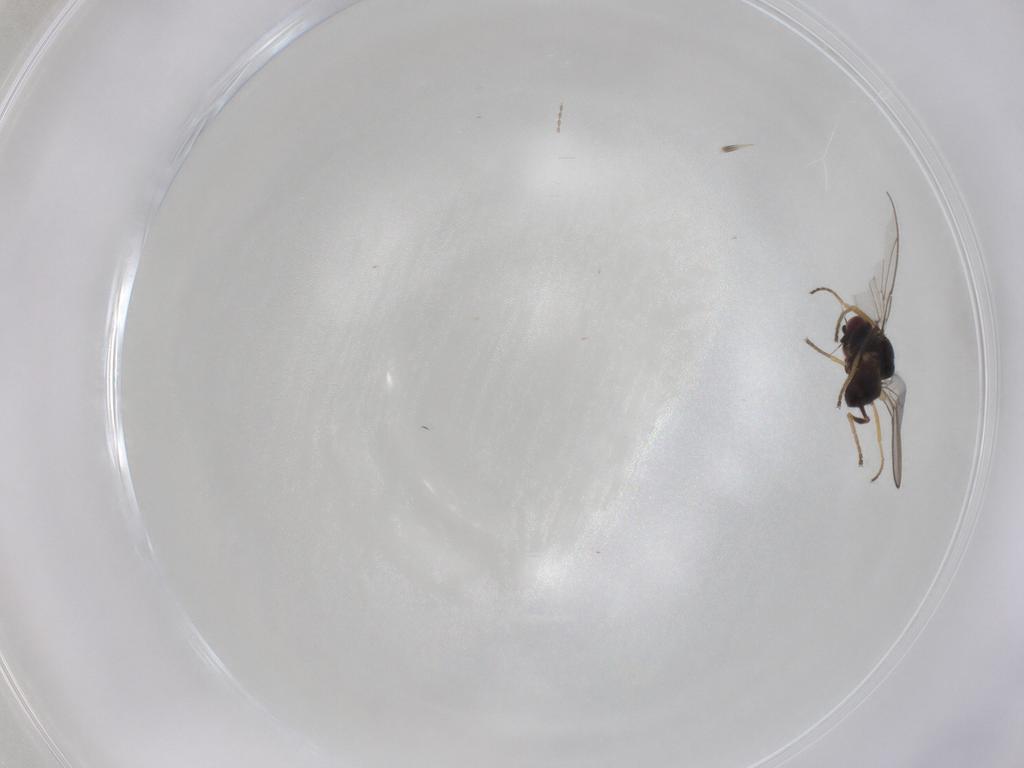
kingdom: Animalia
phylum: Arthropoda
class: Insecta
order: Diptera
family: Chloropidae
